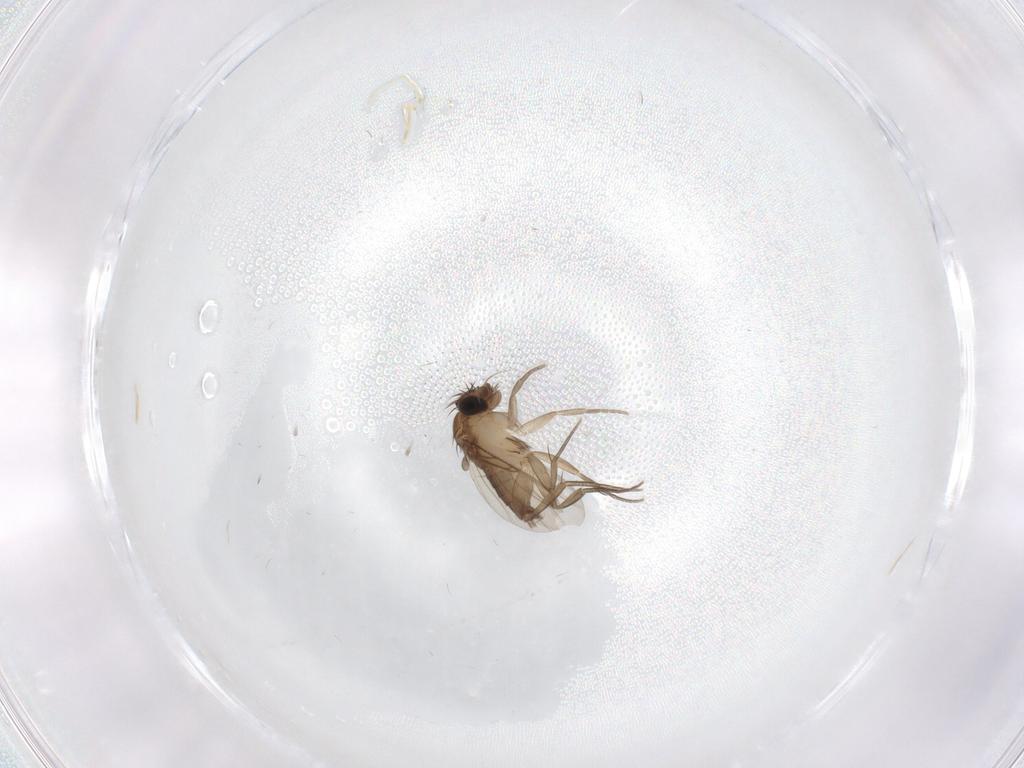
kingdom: Animalia
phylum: Arthropoda
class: Insecta
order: Diptera
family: Phoridae
